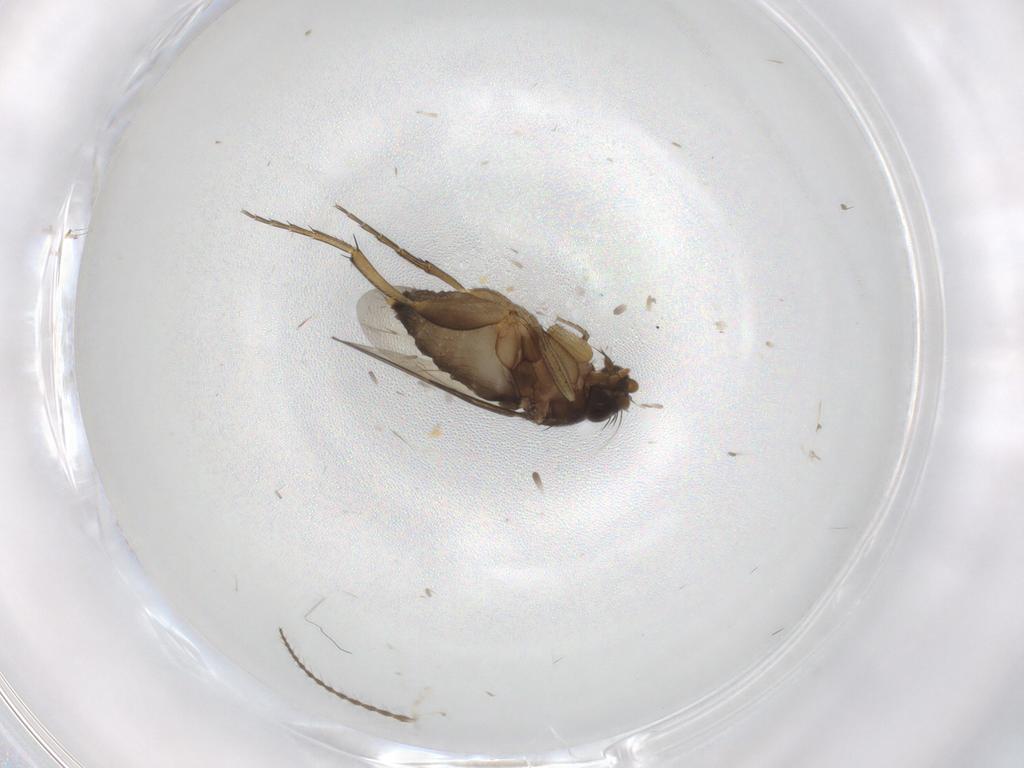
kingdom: Animalia
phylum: Arthropoda
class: Insecta
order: Diptera
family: Phoridae
